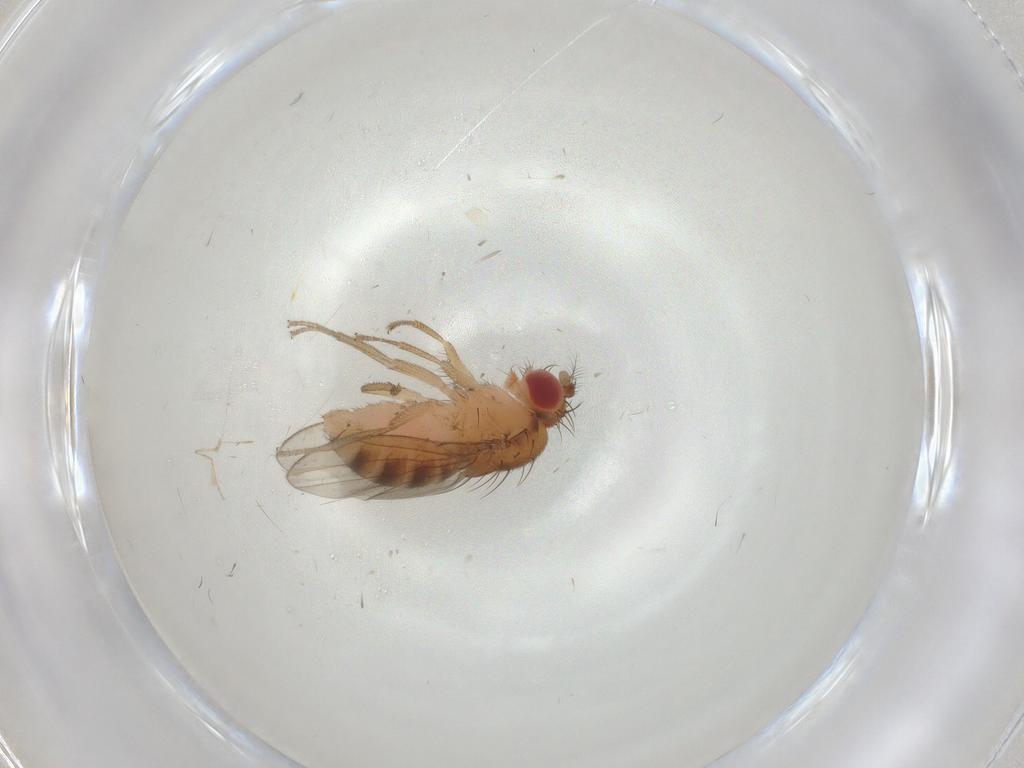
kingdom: Animalia
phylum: Arthropoda
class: Insecta
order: Diptera
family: Drosophilidae
